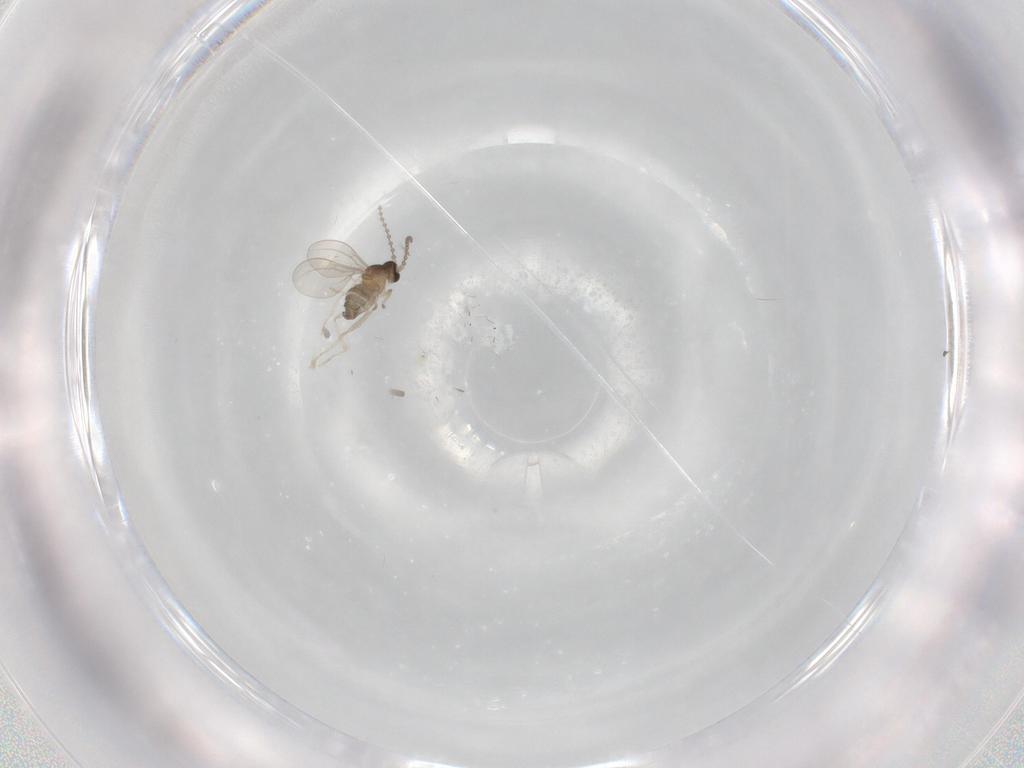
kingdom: Animalia
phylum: Arthropoda
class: Insecta
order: Diptera
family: Cecidomyiidae
